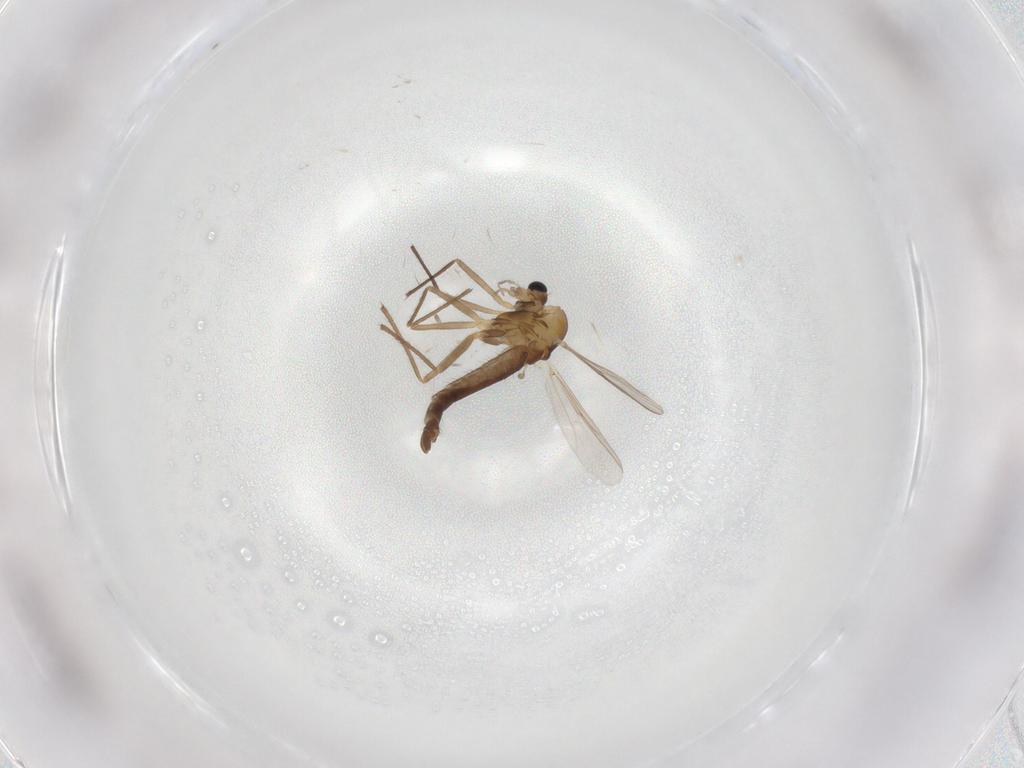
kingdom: Animalia
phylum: Arthropoda
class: Insecta
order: Diptera
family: Chironomidae
